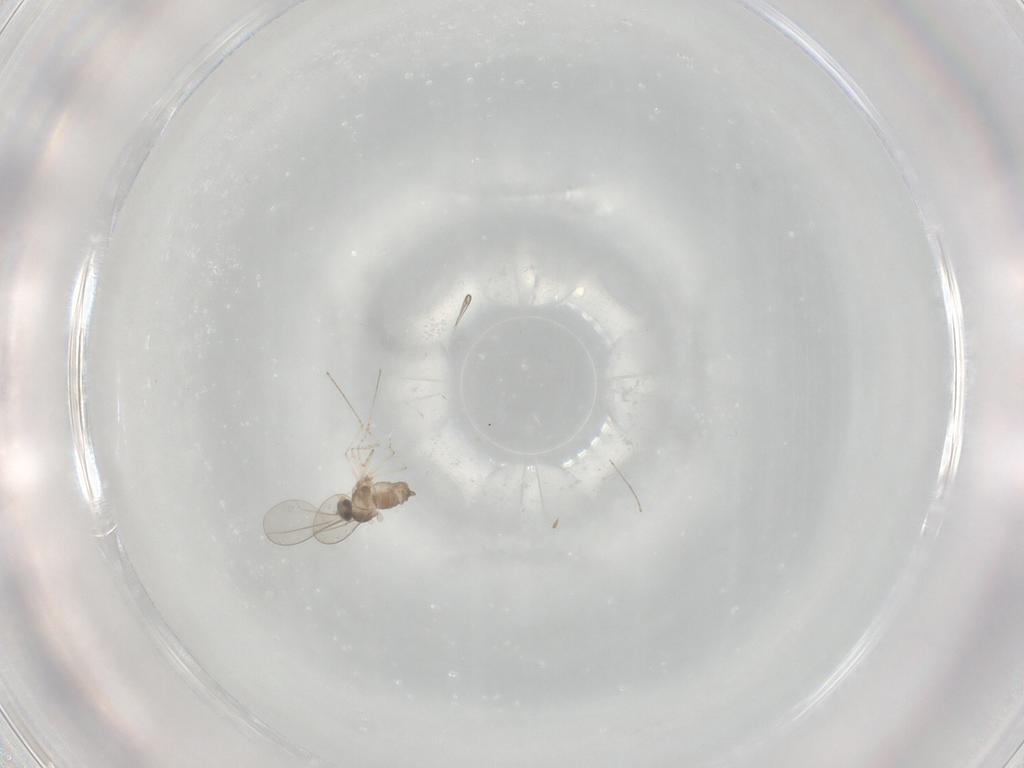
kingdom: Animalia
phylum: Arthropoda
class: Insecta
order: Diptera
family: Cecidomyiidae
